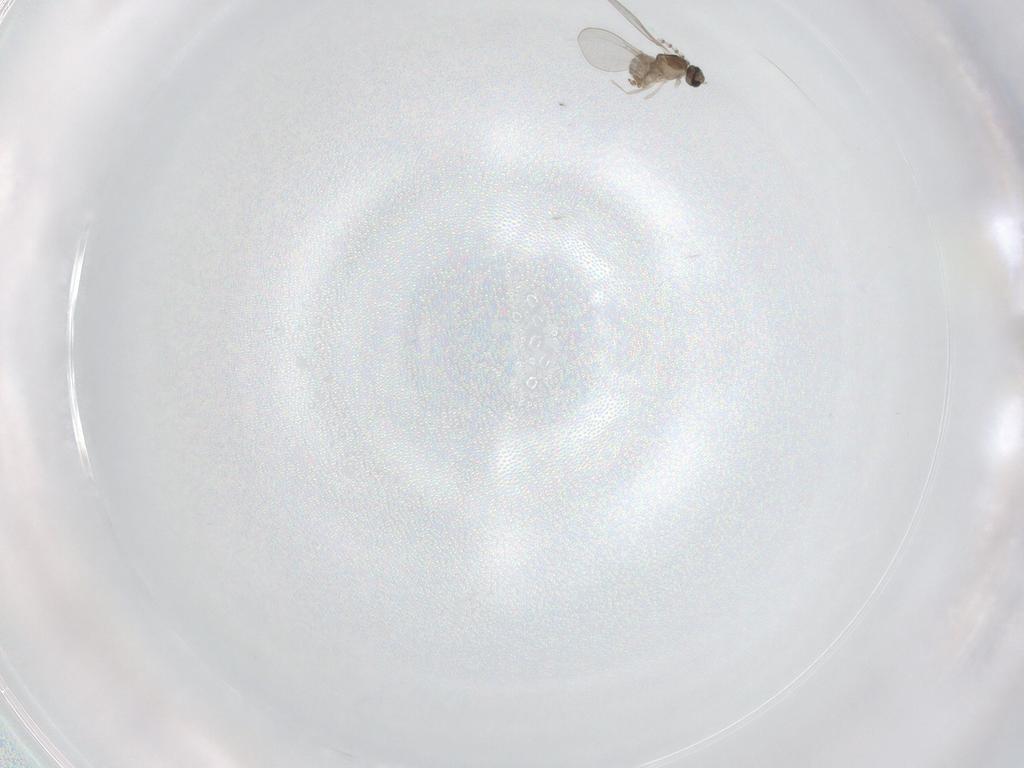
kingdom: Animalia
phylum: Arthropoda
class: Insecta
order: Diptera
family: Cecidomyiidae
